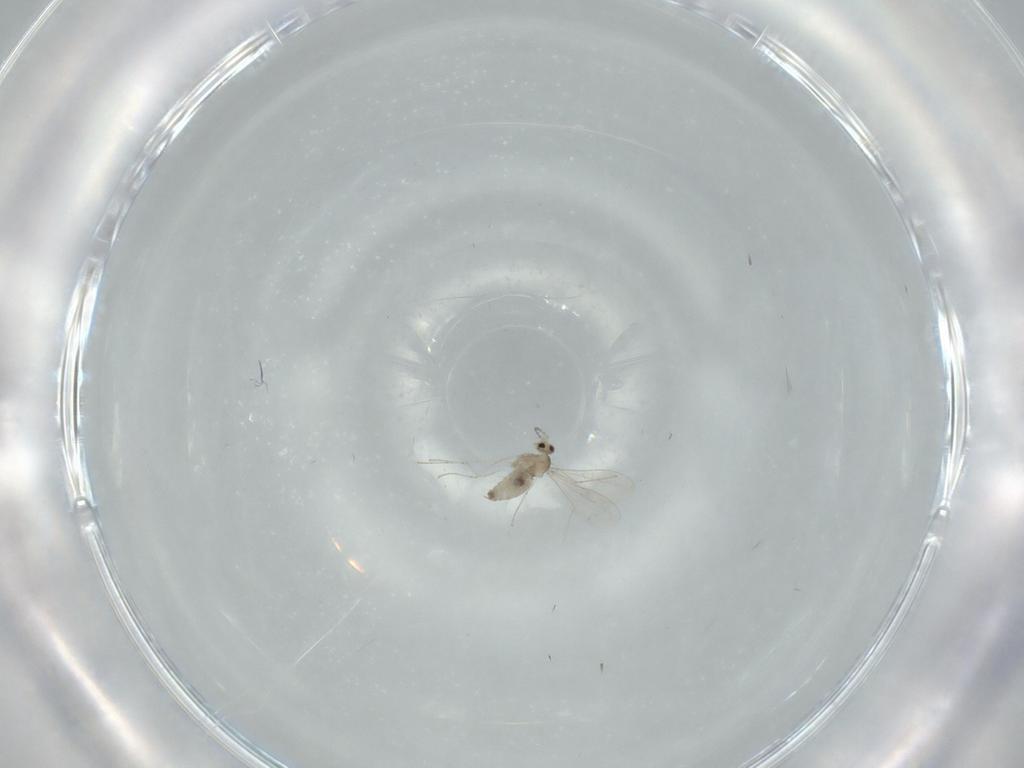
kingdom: Animalia
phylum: Arthropoda
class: Insecta
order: Diptera
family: Cecidomyiidae
